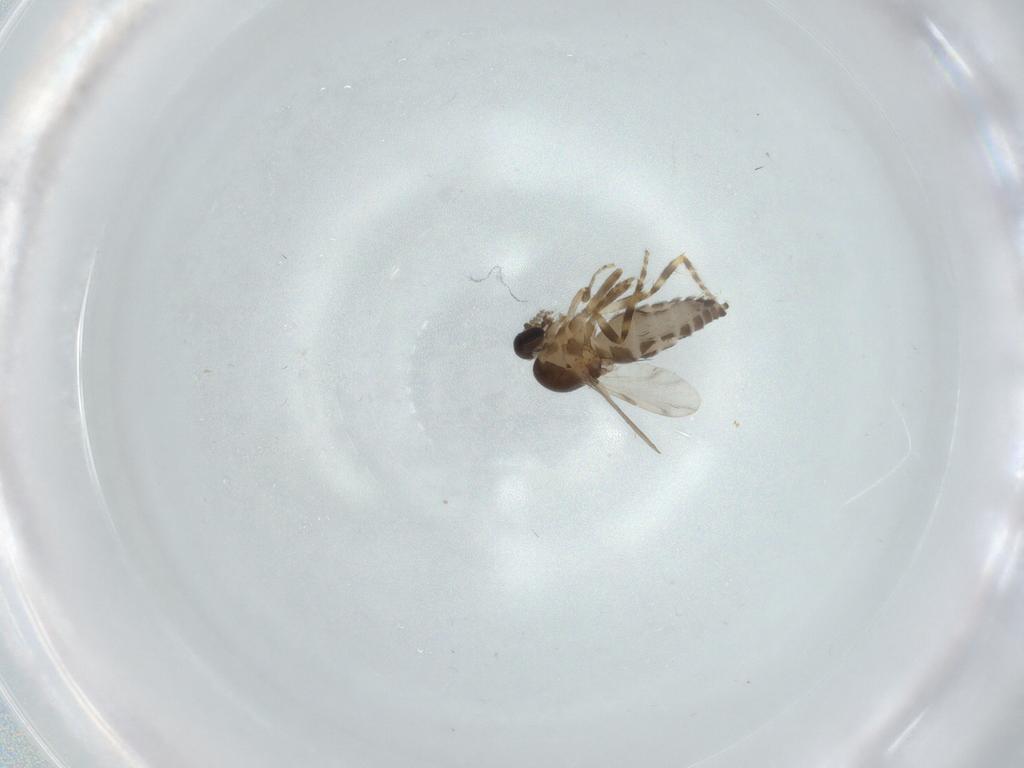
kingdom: Animalia
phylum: Arthropoda
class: Insecta
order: Diptera
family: Ceratopogonidae
